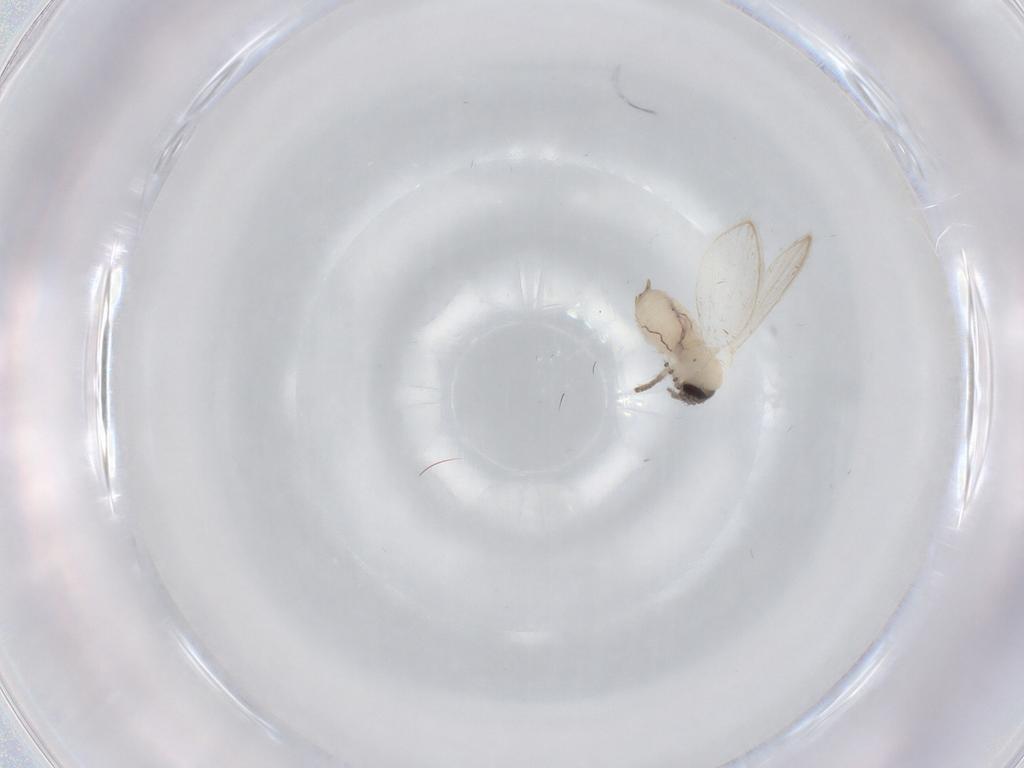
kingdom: Animalia
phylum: Arthropoda
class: Insecta
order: Diptera
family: Psychodidae
